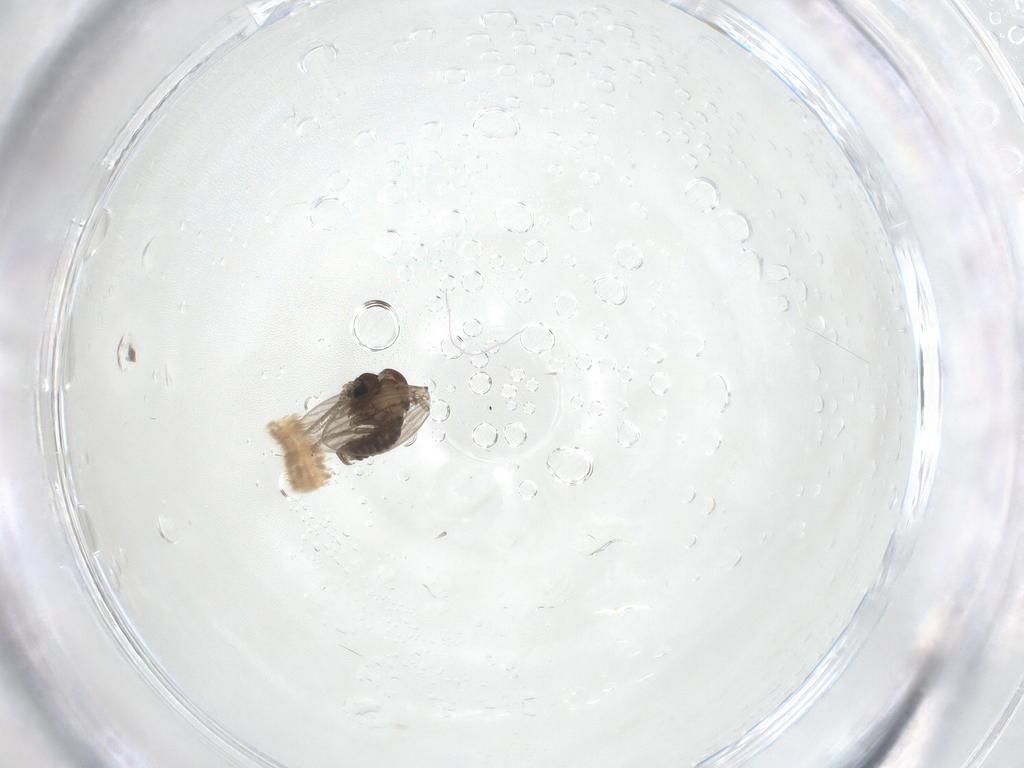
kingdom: Animalia
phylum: Arthropoda
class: Insecta
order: Diptera
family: Psychodidae
